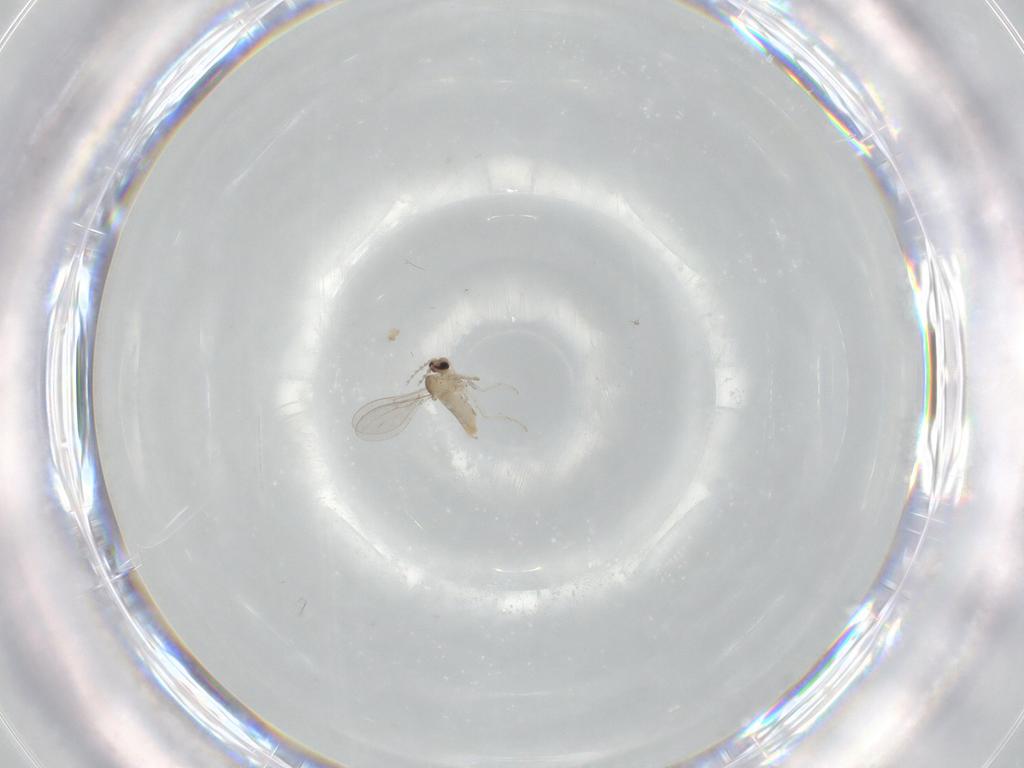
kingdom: Animalia
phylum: Arthropoda
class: Insecta
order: Diptera
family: Cecidomyiidae
